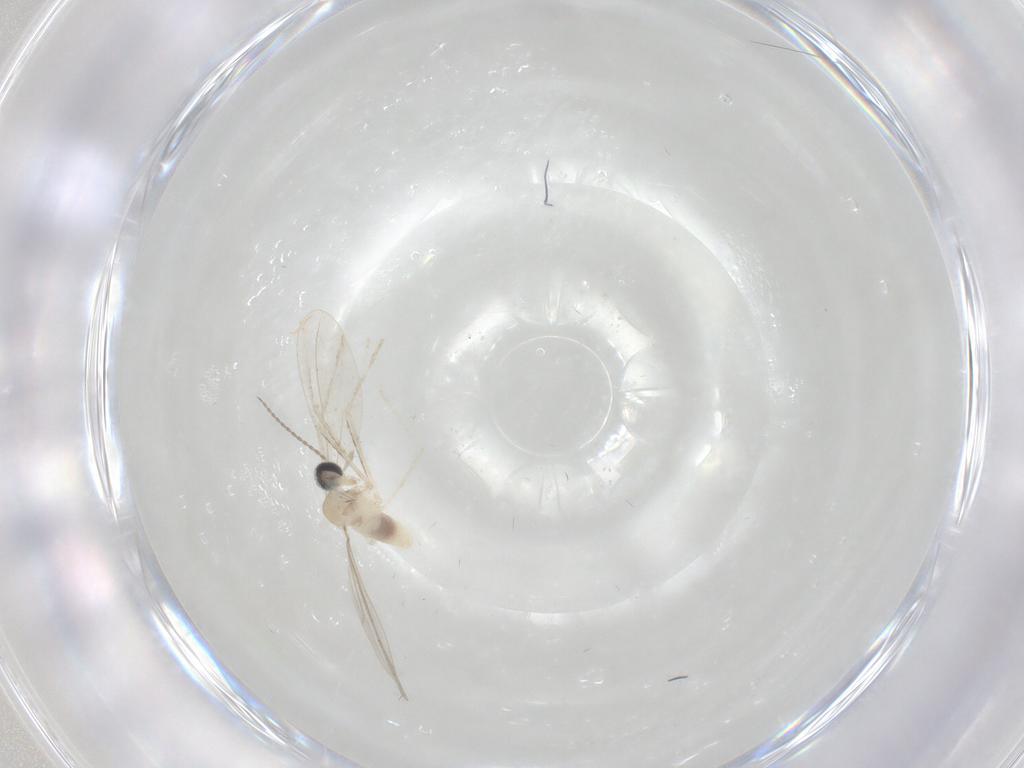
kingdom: Animalia
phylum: Arthropoda
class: Insecta
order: Diptera
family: Cecidomyiidae
